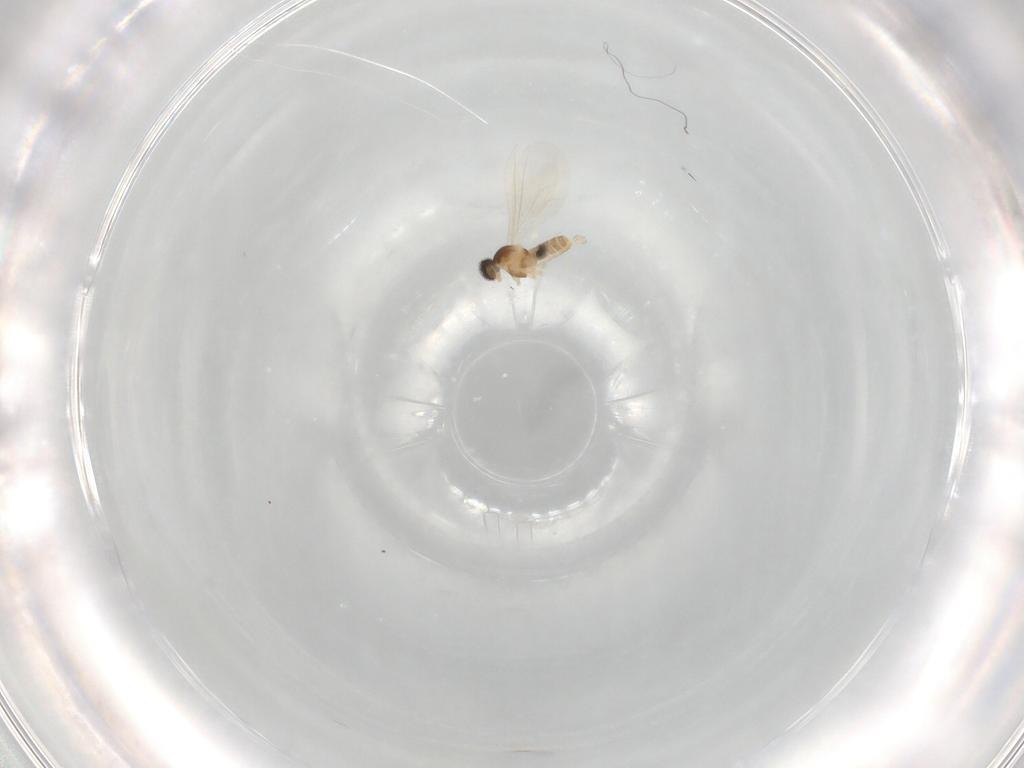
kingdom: Animalia
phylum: Arthropoda
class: Insecta
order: Diptera
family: Cecidomyiidae
